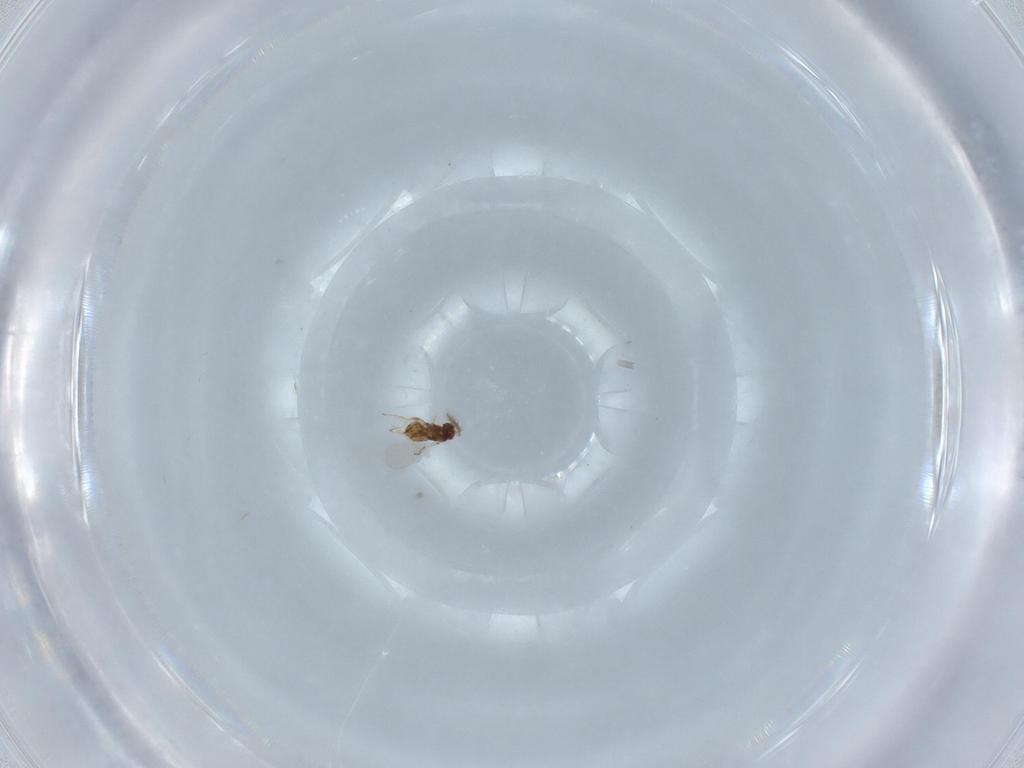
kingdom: Animalia
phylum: Arthropoda
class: Insecta
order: Hymenoptera
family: Trichogrammatidae
